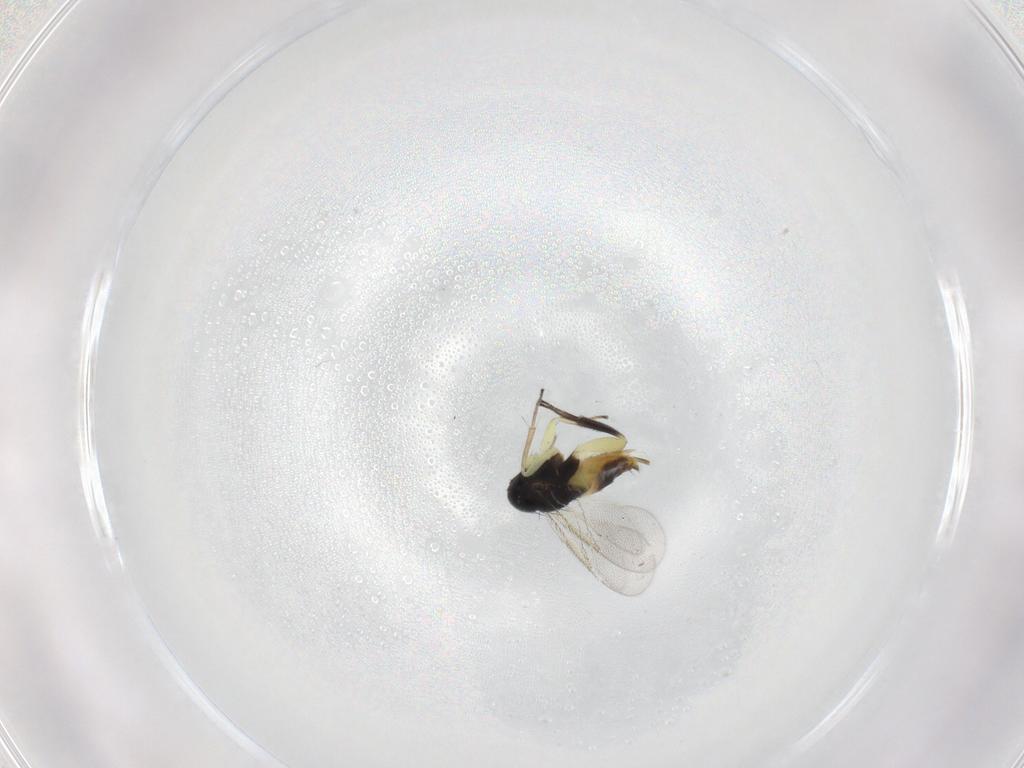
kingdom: Animalia
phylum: Arthropoda
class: Insecta
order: Hymenoptera
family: Aphelinidae
